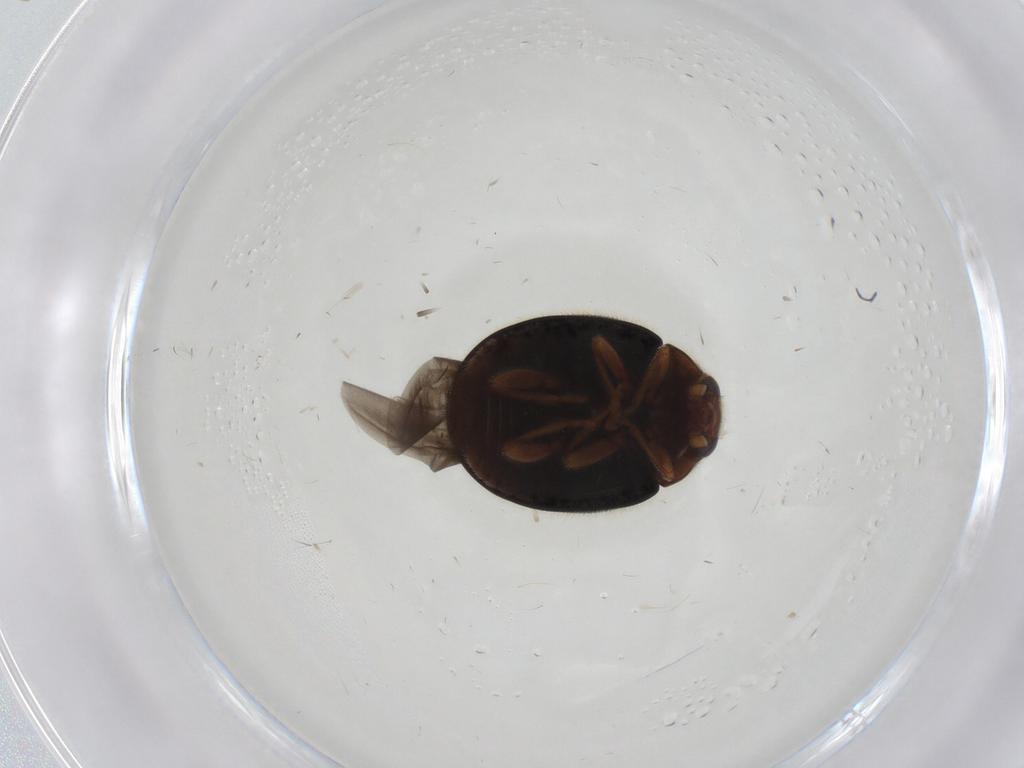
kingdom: Animalia
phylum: Arthropoda
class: Insecta
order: Coleoptera
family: Coccinellidae
